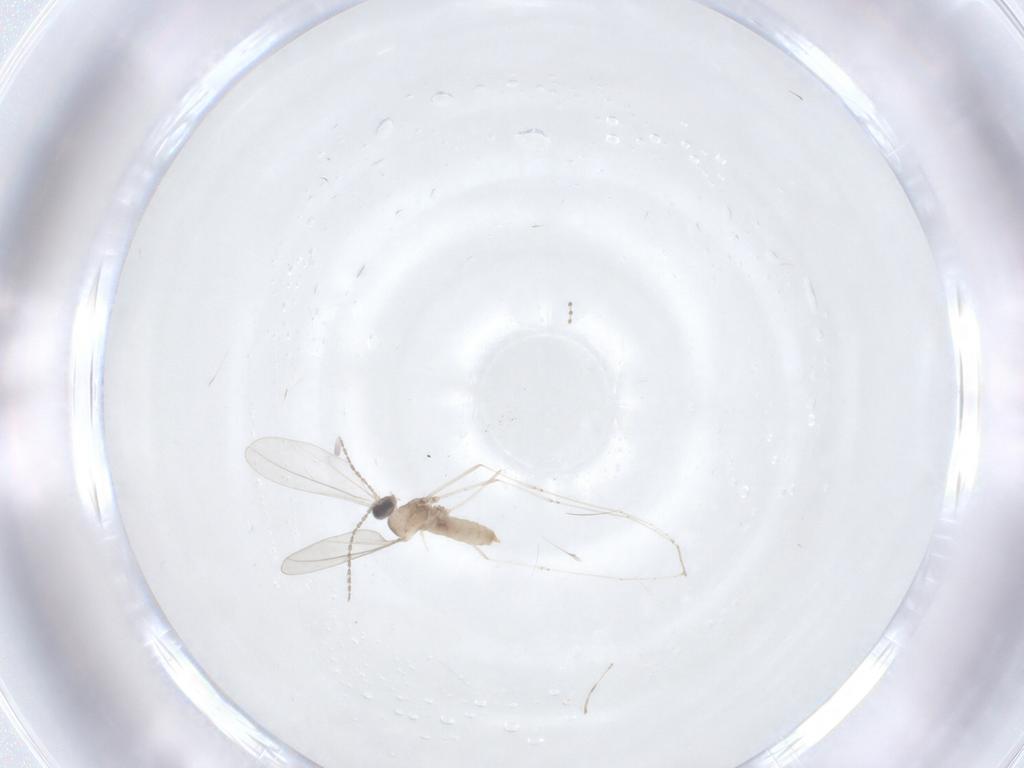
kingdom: Animalia
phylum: Arthropoda
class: Insecta
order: Diptera
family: Cecidomyiidae
